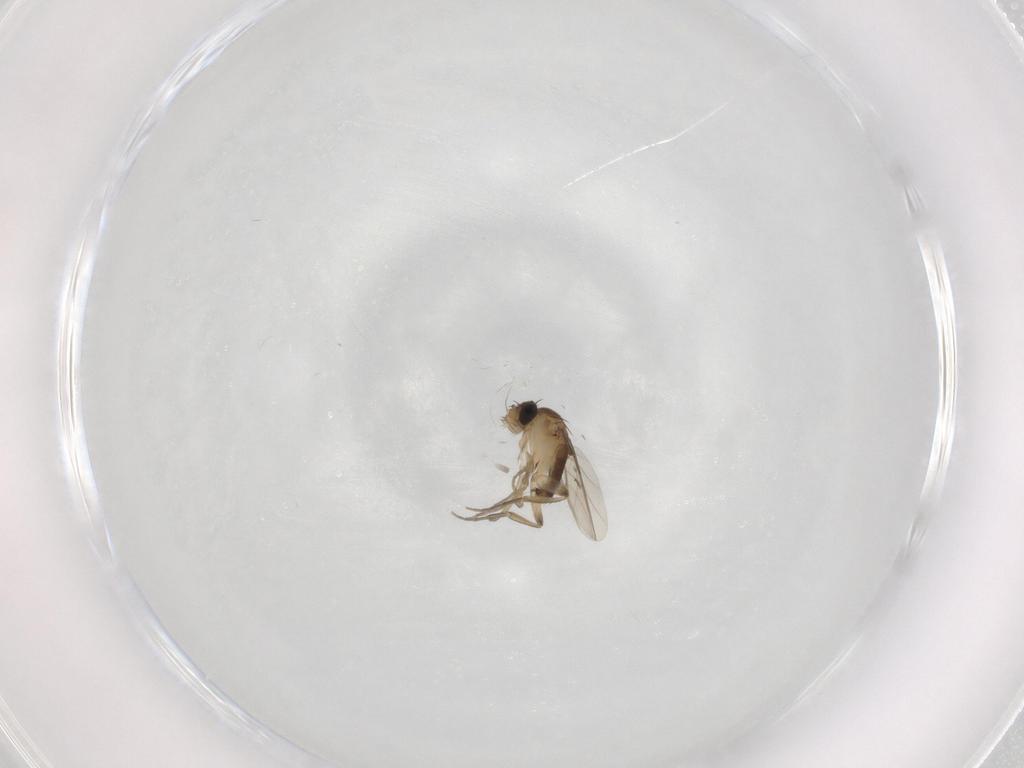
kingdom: Animalia
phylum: Arthropoda
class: Insecta
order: Diptera
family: Phoridae
